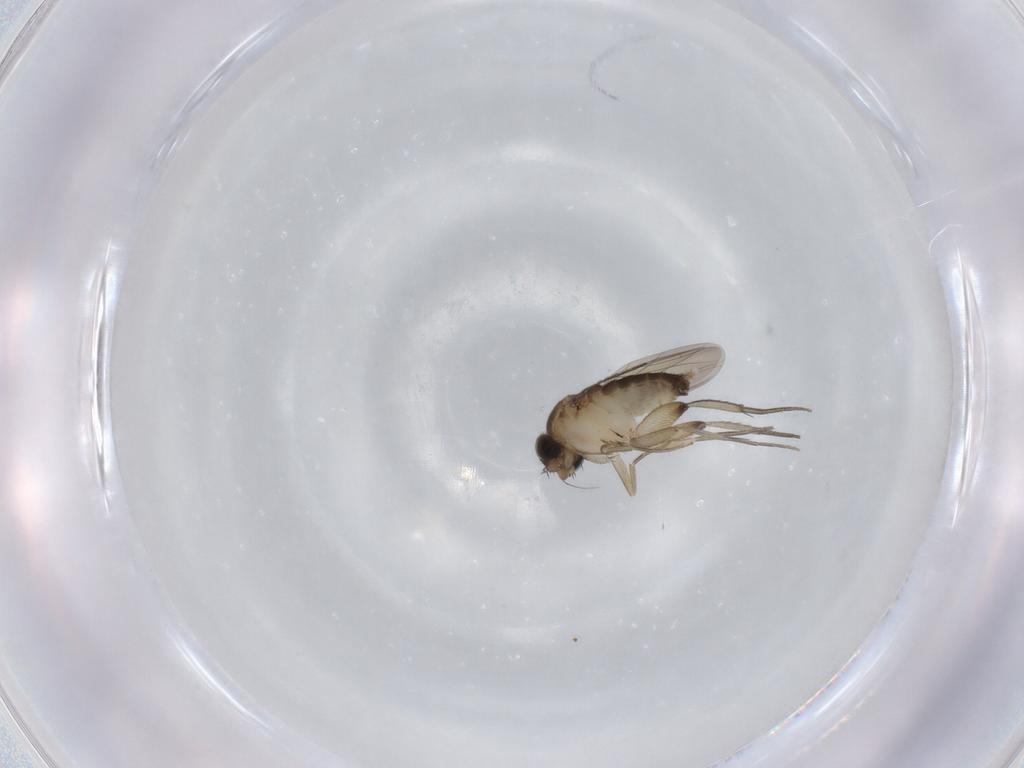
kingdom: Animalia
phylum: Arthropoda
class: Insecta
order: Diptera
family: Phoridae
